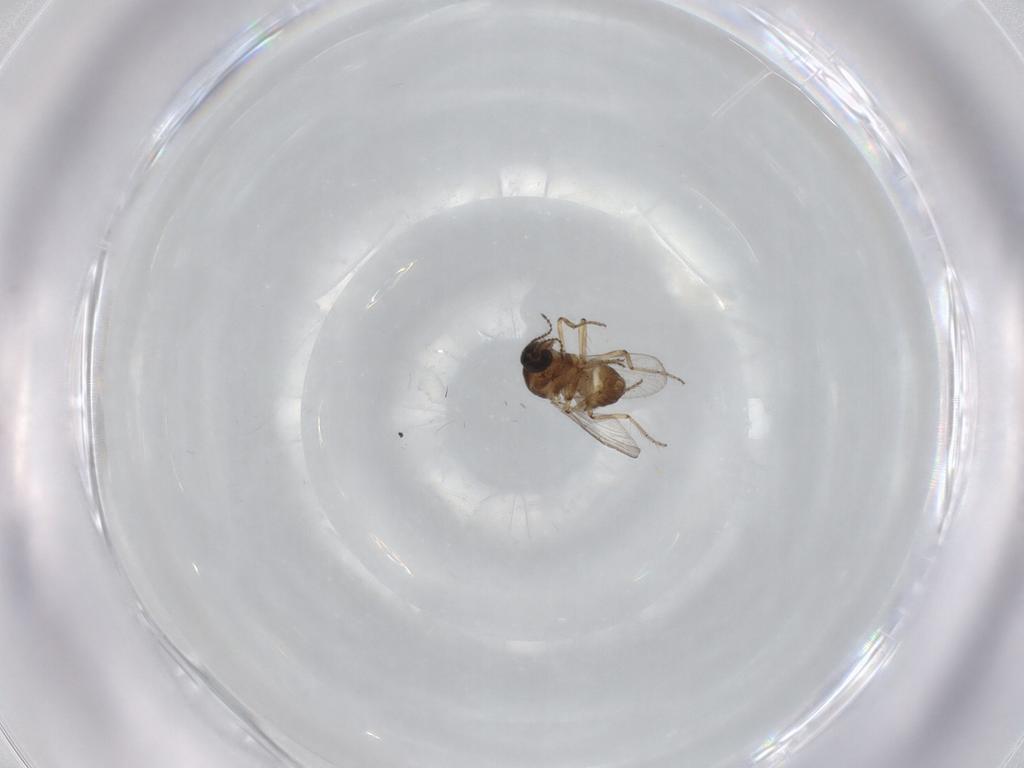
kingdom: Animalia
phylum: Arthropoda
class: Insecta
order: Diptera
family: Ceratopogonidae
